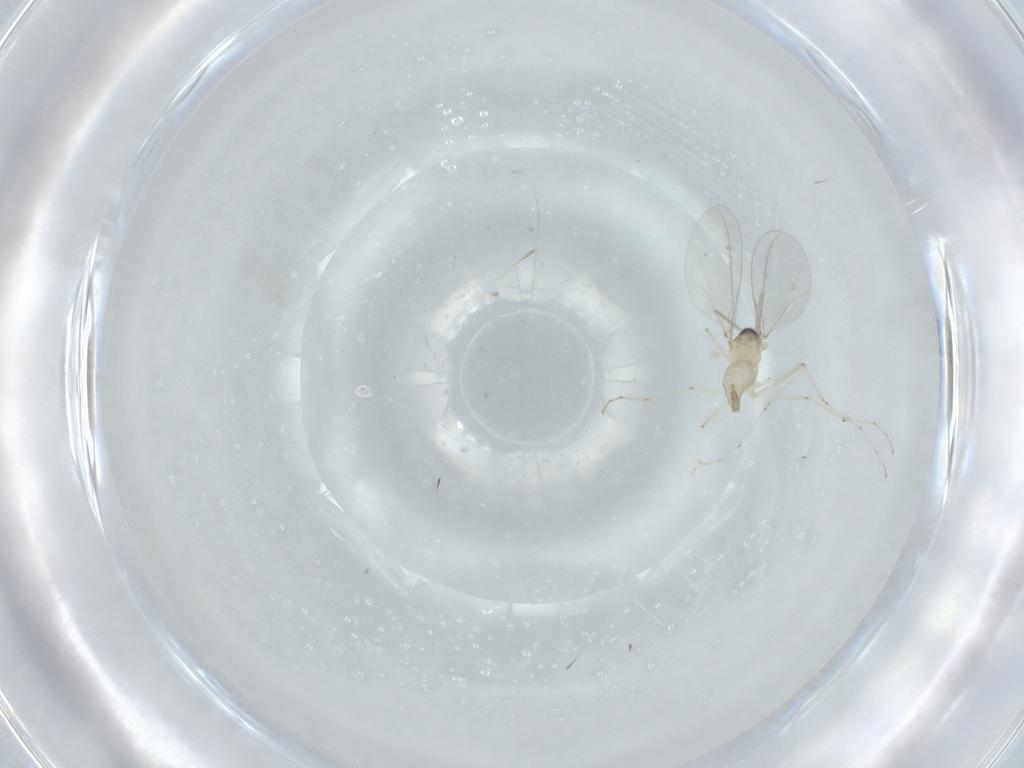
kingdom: Animalia
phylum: Arthropoda
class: Insecta
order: Diptera
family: Cecidomyiidae
